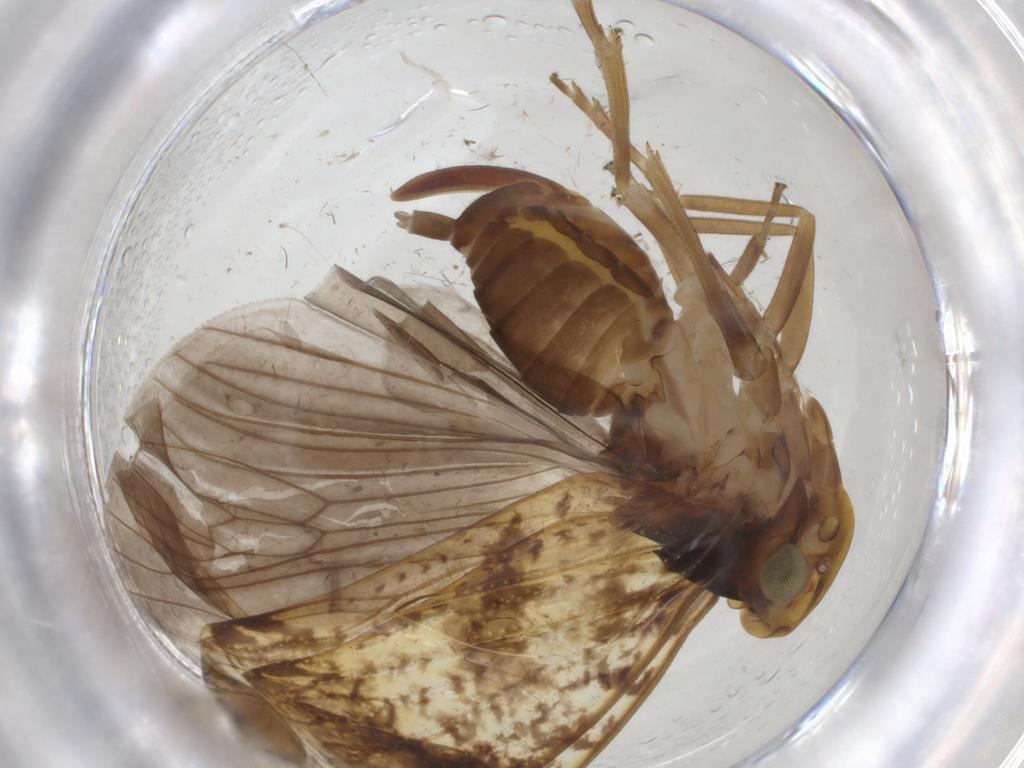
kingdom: Animalia
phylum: Arthropoda
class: Insecta
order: Hemiptera
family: Cixiidae
